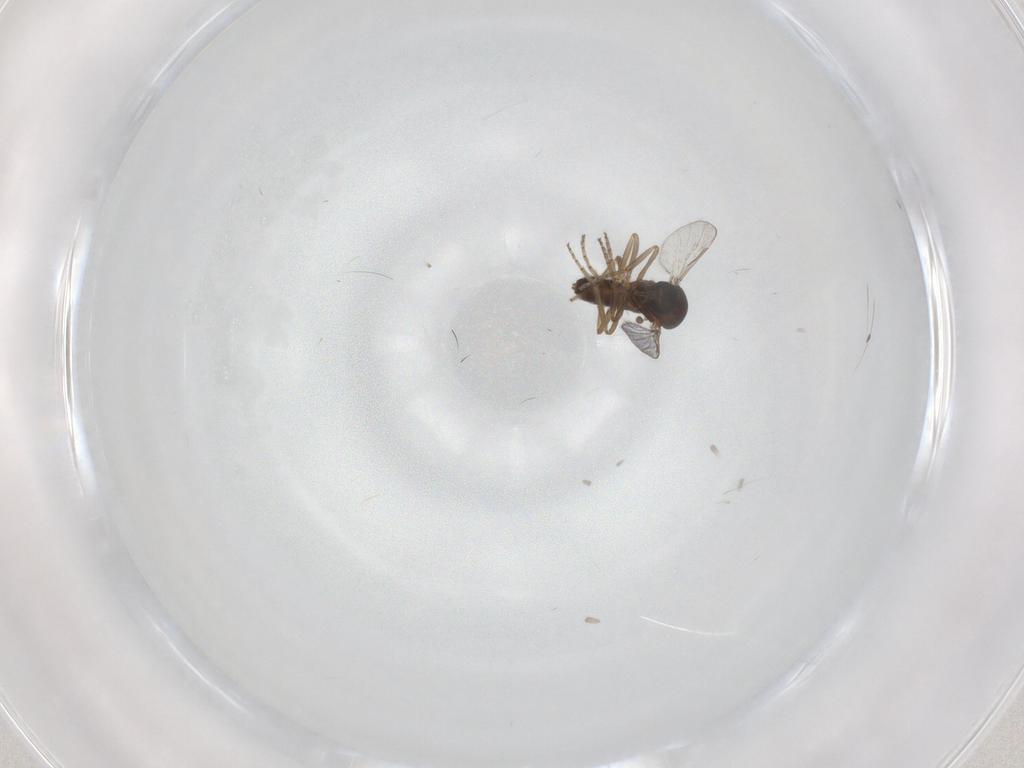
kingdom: Animalia
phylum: Arthropoda
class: Insecta
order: Diptera
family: Ceratopogonidae
